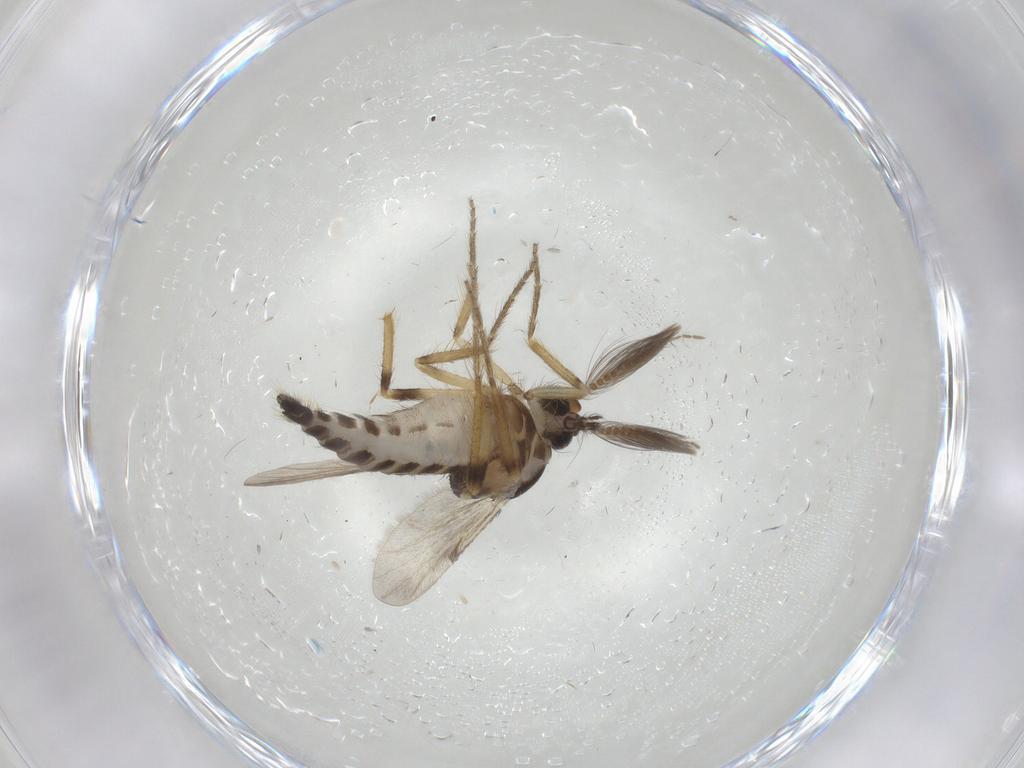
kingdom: Animalia
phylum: Arthropoda
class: Insecta
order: Diptera
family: Ceratopogonidae
